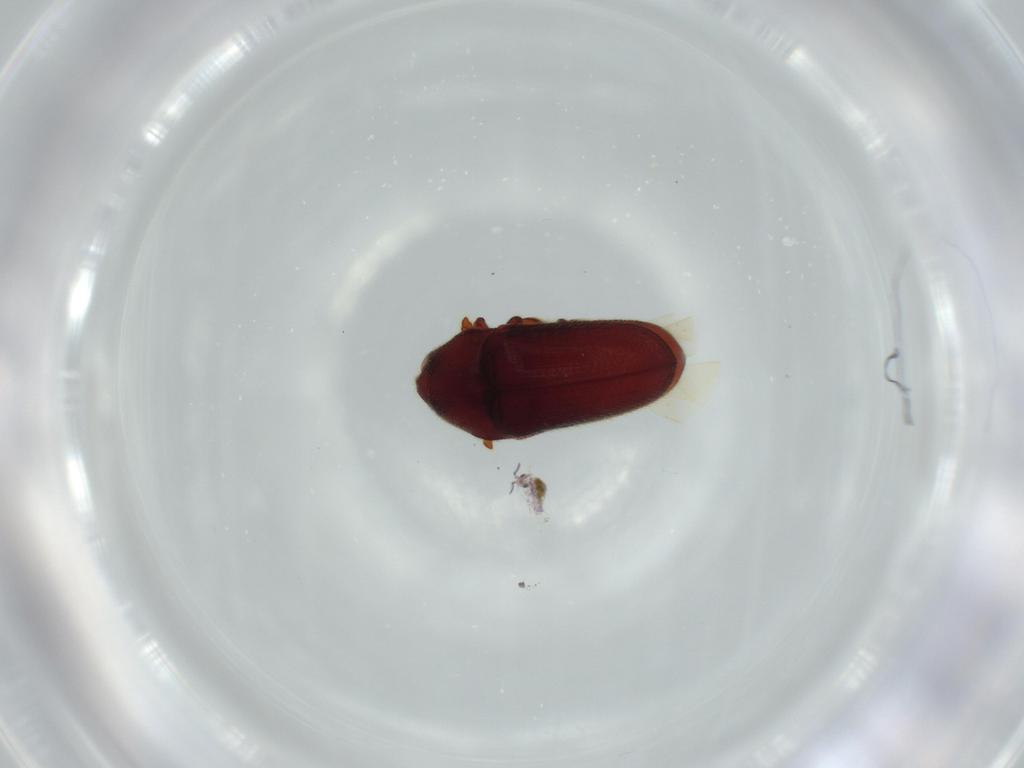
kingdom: Animalia
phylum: Arthropoda
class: Insecta
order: Coleoptera
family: Throscidae
